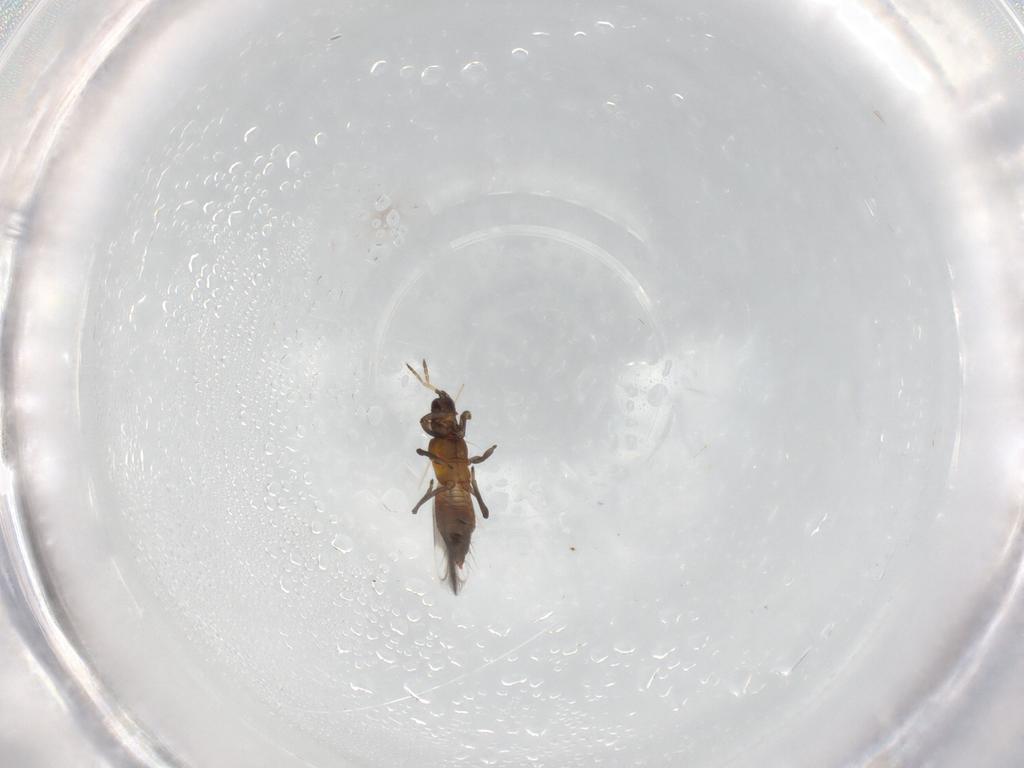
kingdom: Animalia
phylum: Arthropoda
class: Insecta
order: Thysanoptera
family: Aeolothripidae
